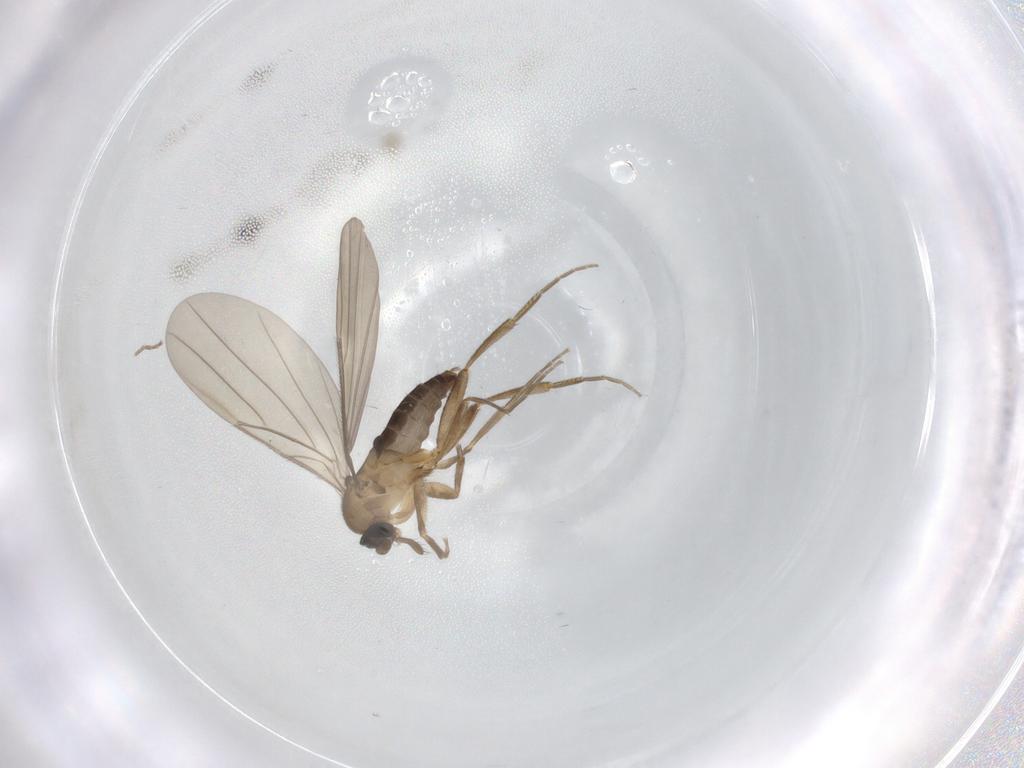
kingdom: Animalia
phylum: Arthropoda
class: Insecta
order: Diptera
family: Phoridae
